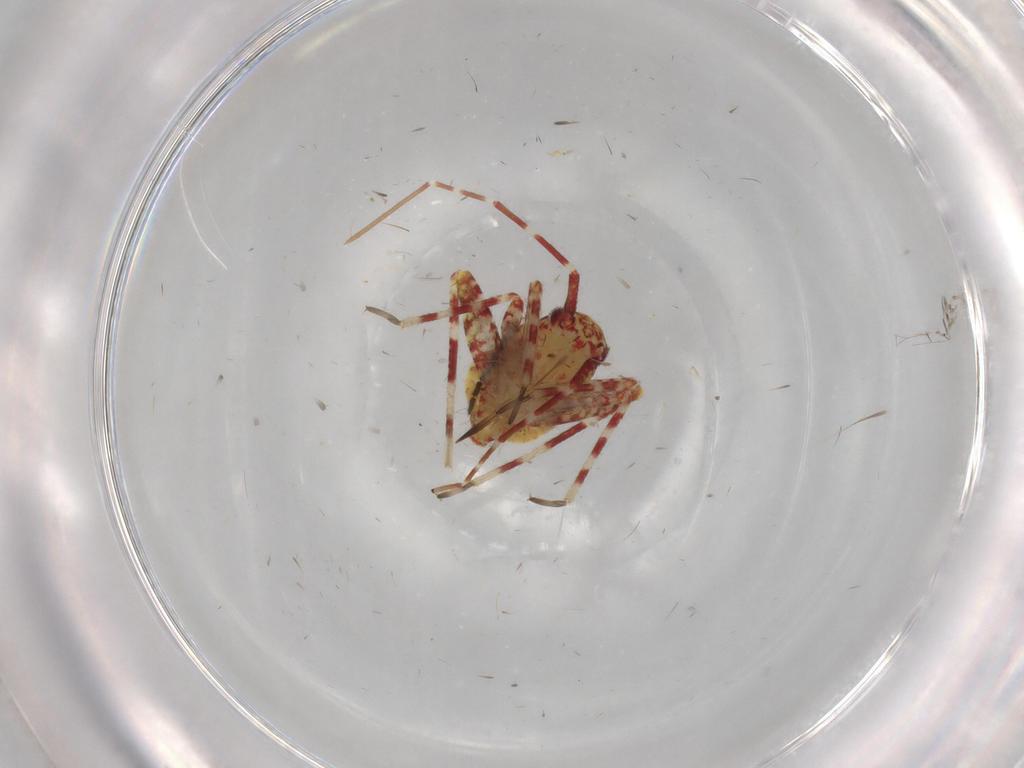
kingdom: Animalia
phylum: Arthropoda
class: Insecta
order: Hemiptera
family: Miridae
